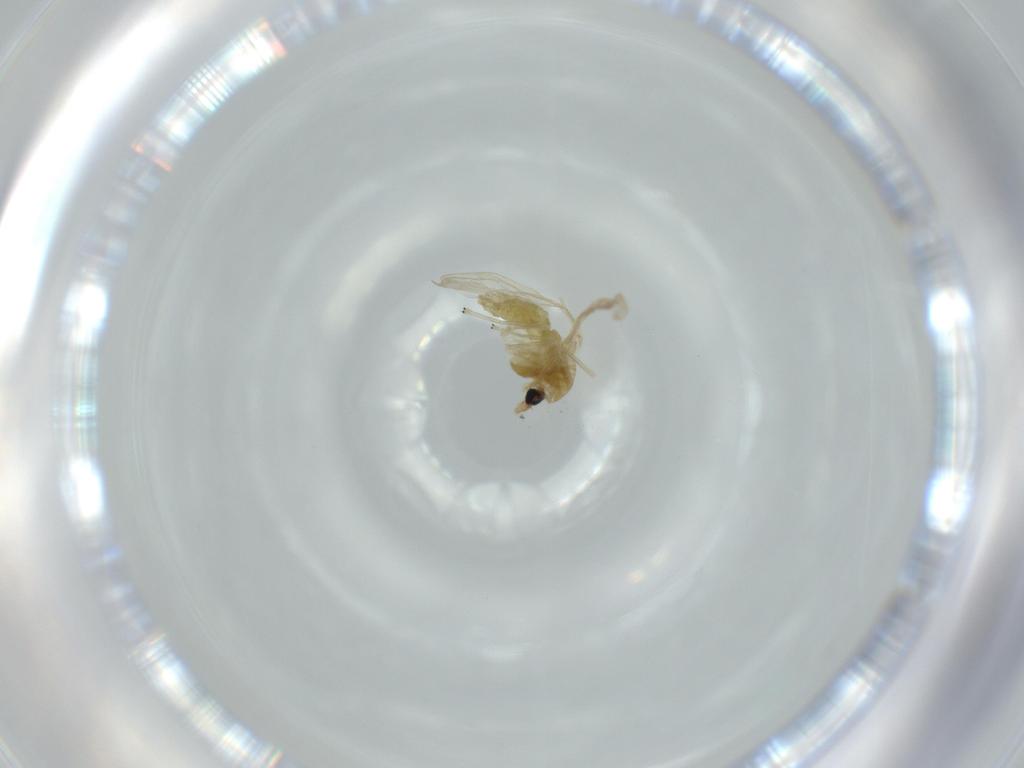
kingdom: Animalia
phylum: Arthropoda
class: Insecta
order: Diptera
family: Chironomidae
